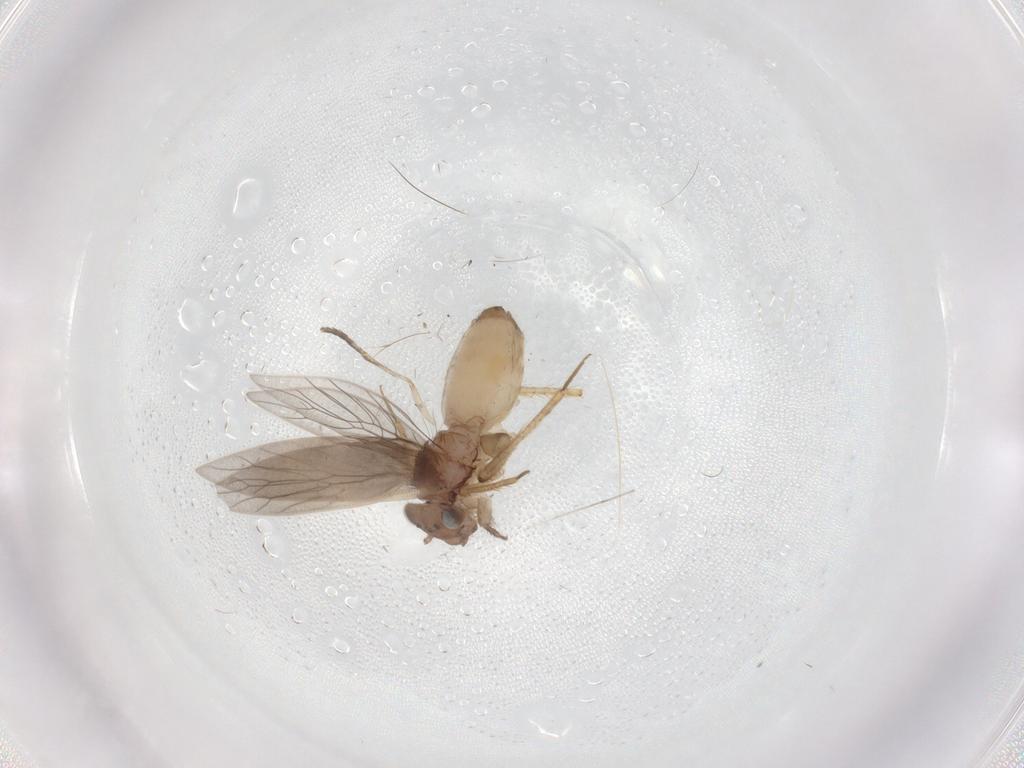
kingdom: Animalia
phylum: Arthropoda
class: Insecta
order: Psocodea
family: Lepidopsocidae
